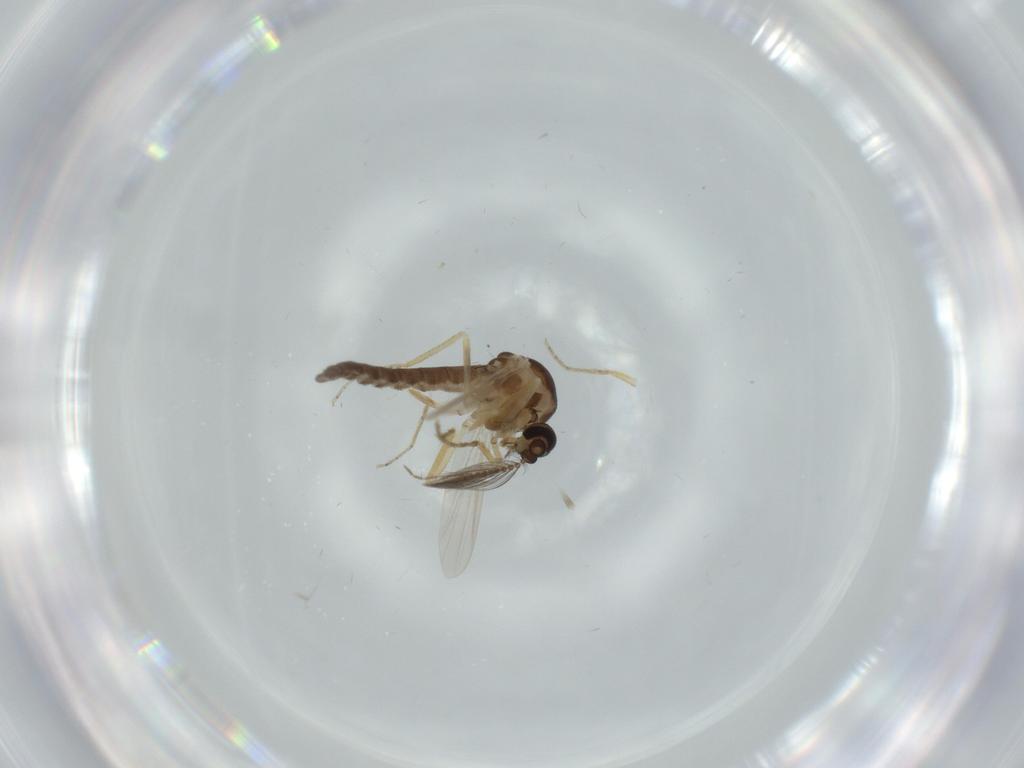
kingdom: Animalia
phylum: Arthropoda
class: Insecta
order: Diptera
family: Ceratopogonidae
